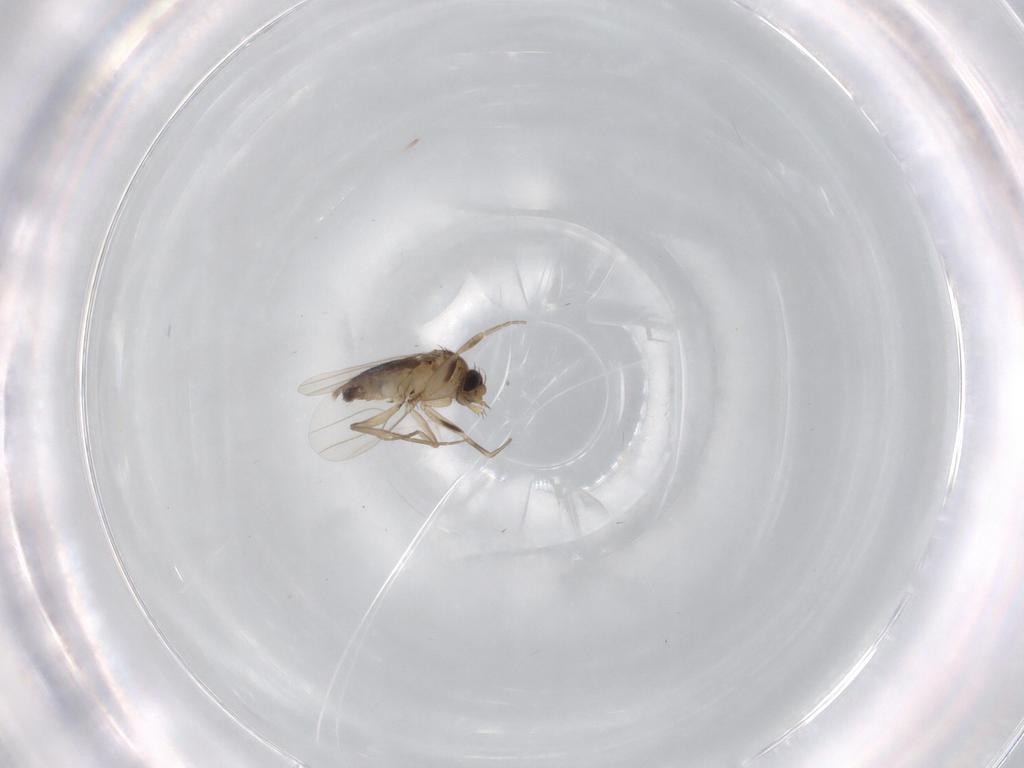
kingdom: Animalia
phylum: Arthropoda
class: Insecta
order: Diptera
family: Phoridae
